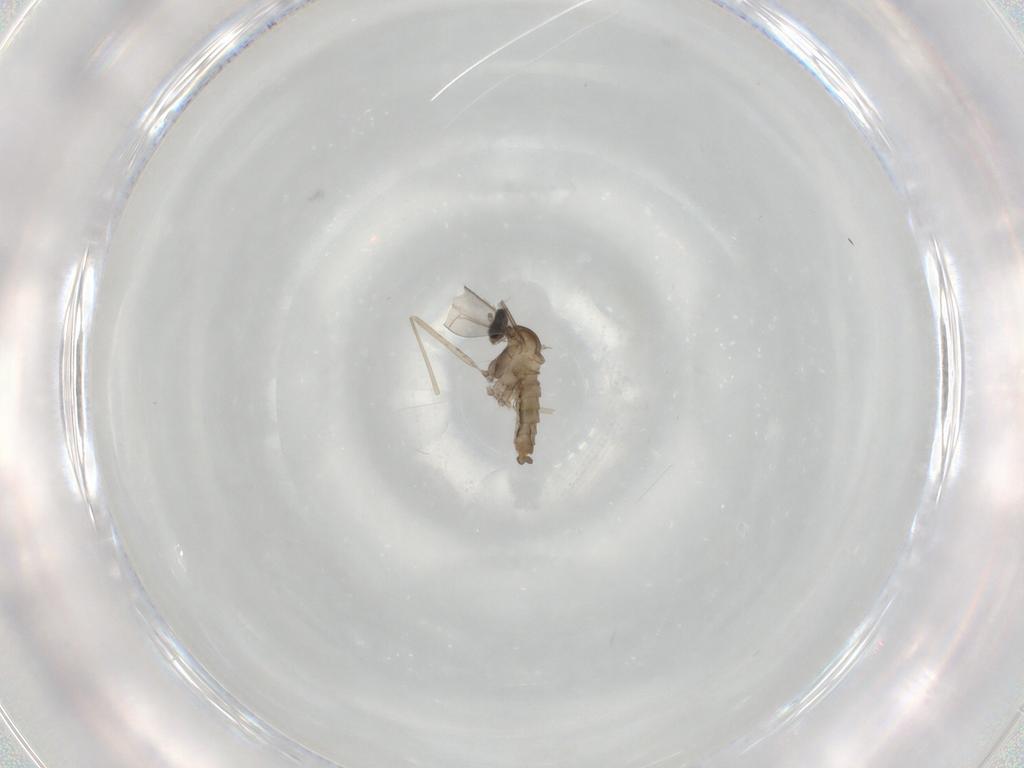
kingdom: Animalia
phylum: Arthropoda
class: Insecta
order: Diptera
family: Cecidomyiidae
